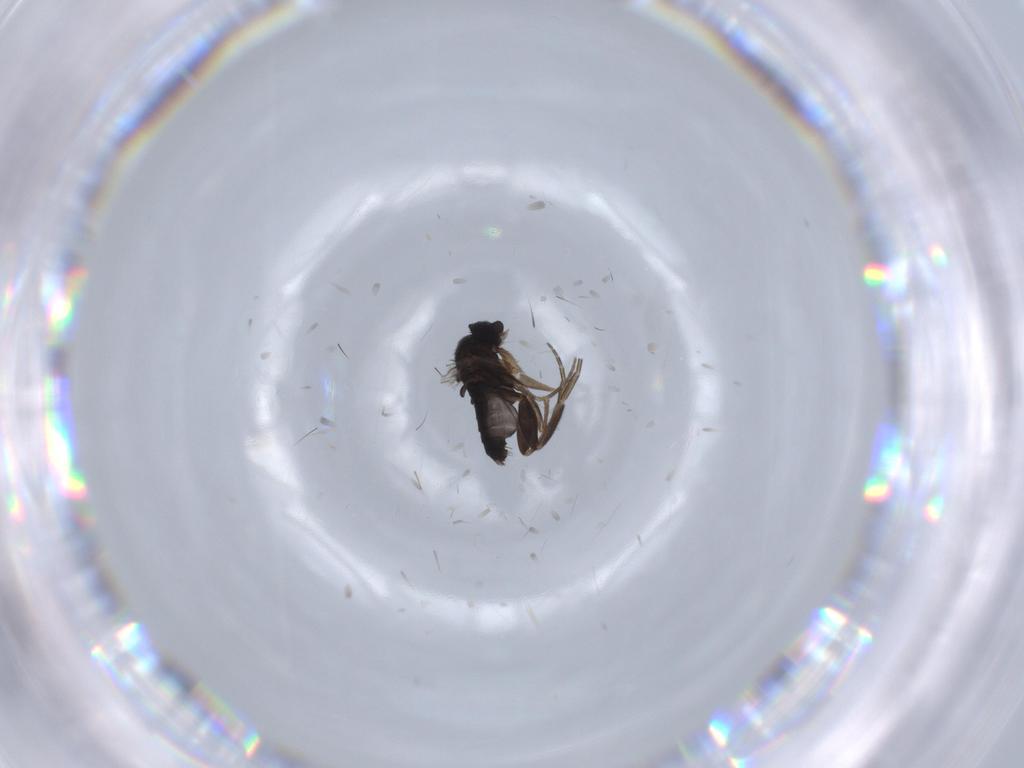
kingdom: Animalia
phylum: Arthropoda
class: Insecta
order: Diptera
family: Phoridae
